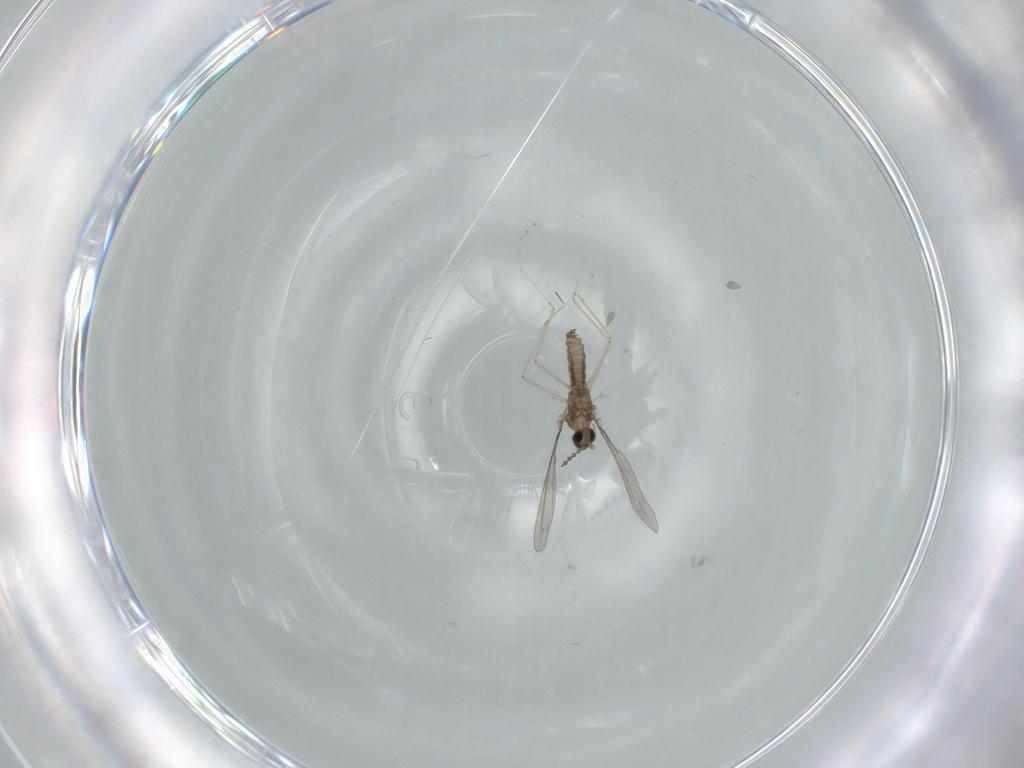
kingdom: Animalia
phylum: Arthropoda
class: Insecta
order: Diptera
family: Cecidomyiidae
